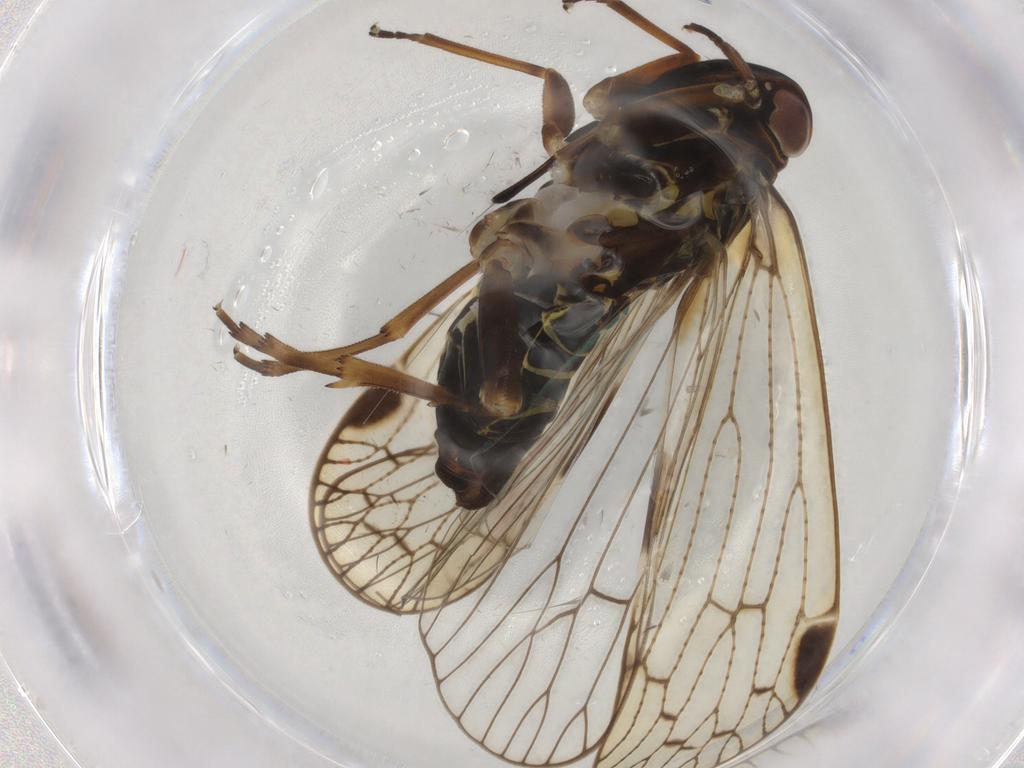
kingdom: Animalia
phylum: Arthropoda
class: Insecta
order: Hemiptera
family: Cixiidae
